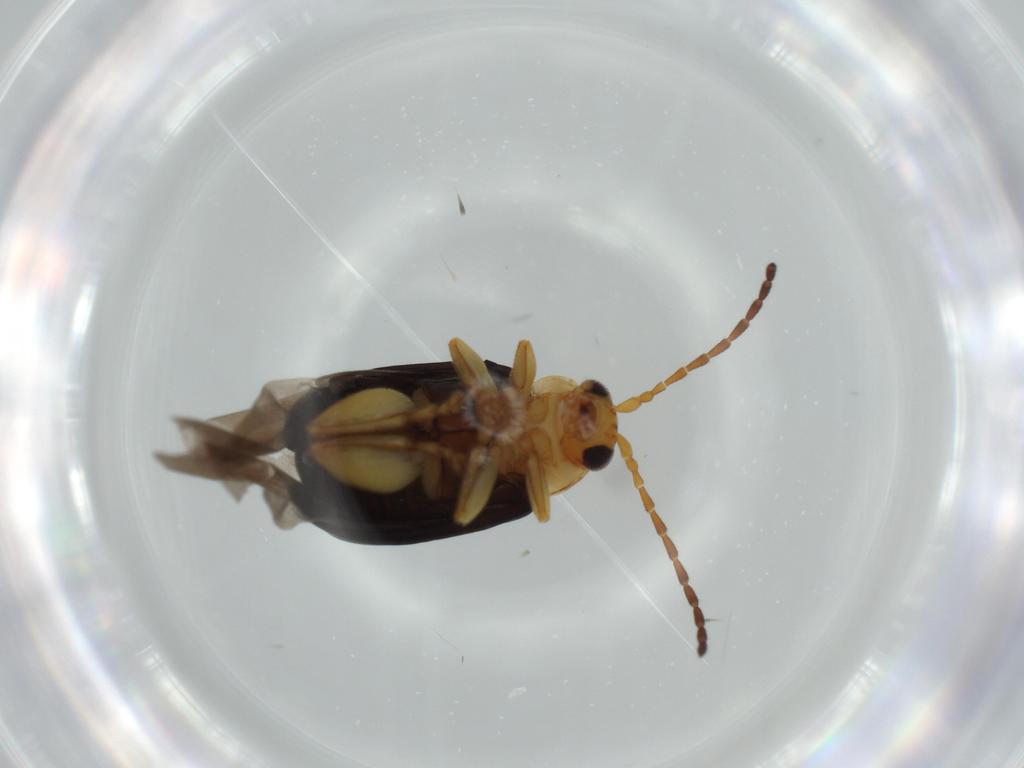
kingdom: Animalia
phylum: Arthropoda
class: Insecta
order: Coleoptera
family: Chrysomelidae
